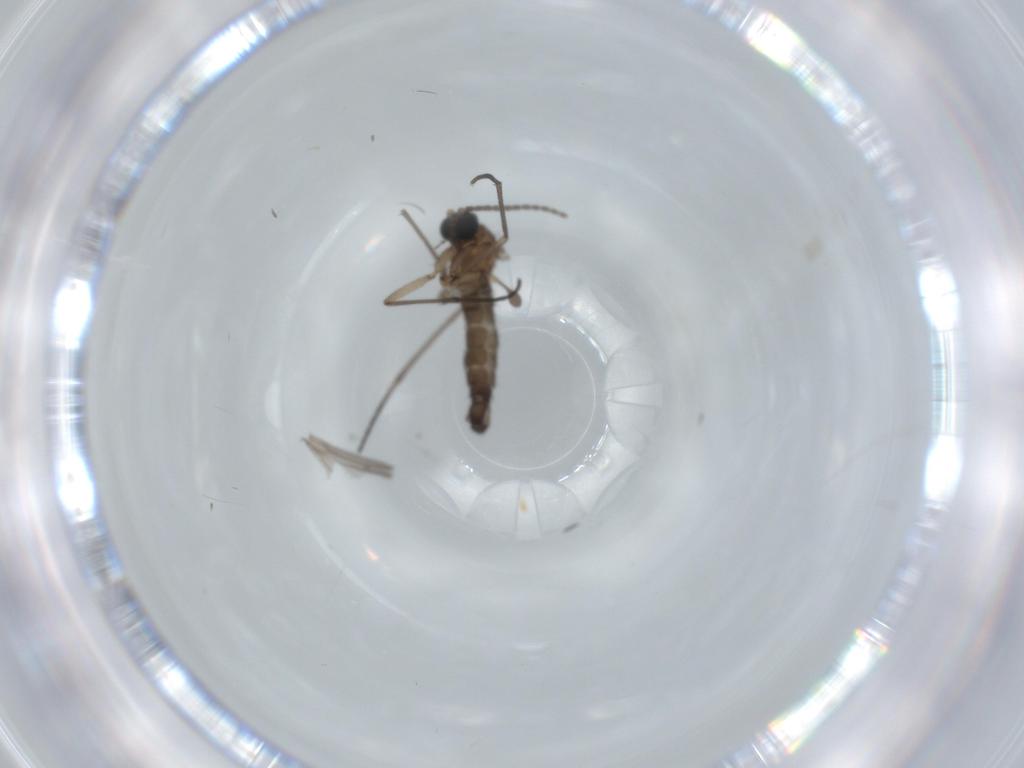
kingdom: Animalia
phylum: Arthropoda
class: Insecta
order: Diptera
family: Sciaridae
